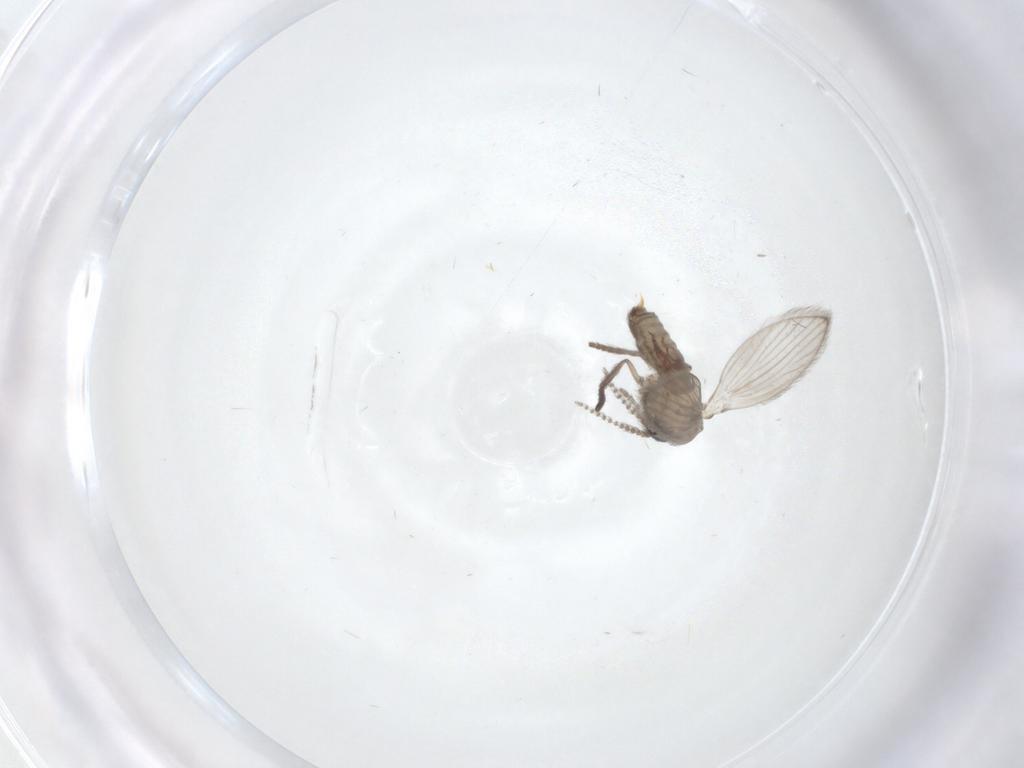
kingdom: Animalia
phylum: Arthropoda
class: Insecta
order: Diptera
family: Psychodidae
